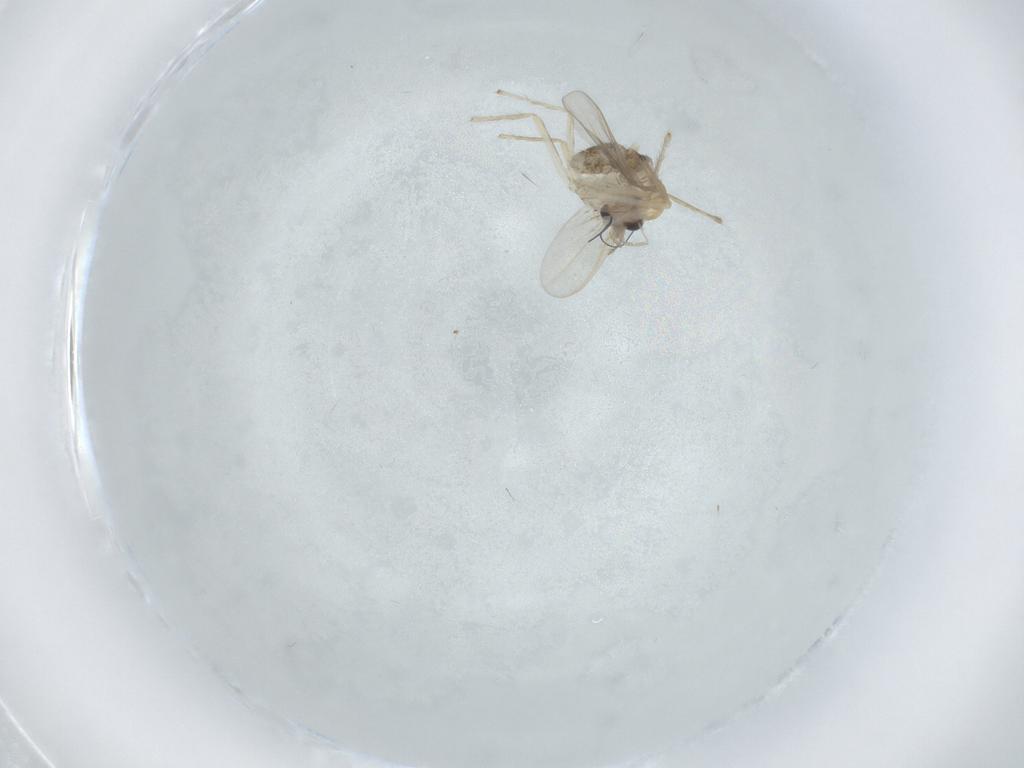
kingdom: Animalia
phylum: Arthropoda
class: Insecta
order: Diptera
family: Chironomidae
